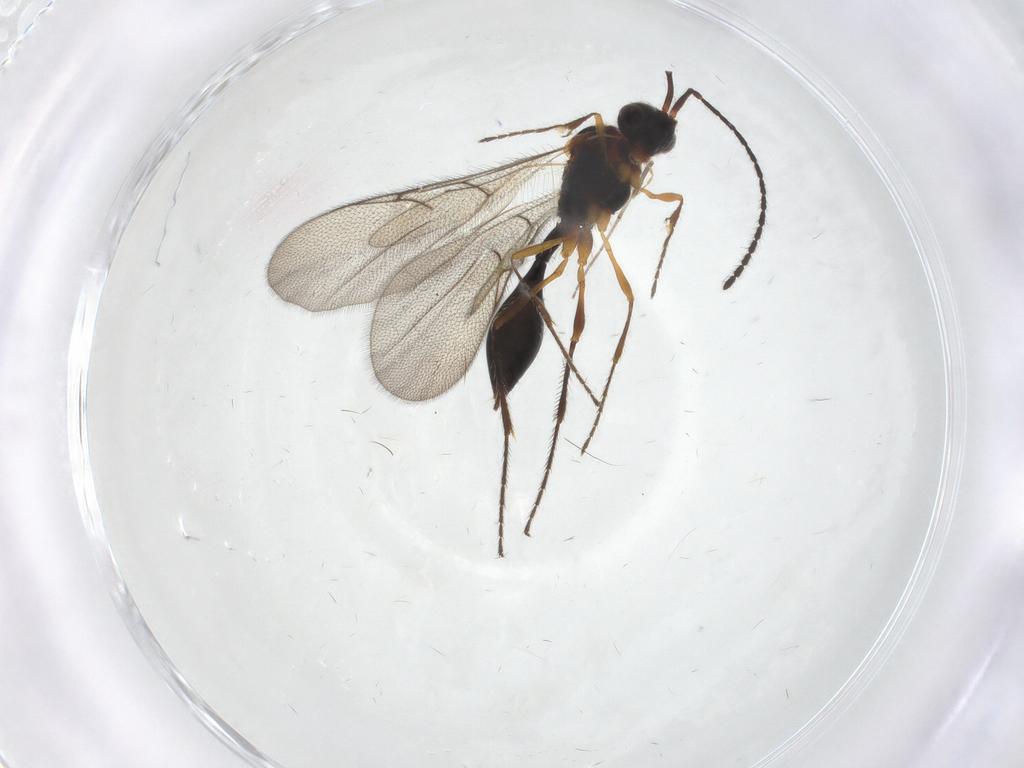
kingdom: Animalia
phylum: Arthropoda
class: Insecta
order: Hymenoptera
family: Diapriidae
